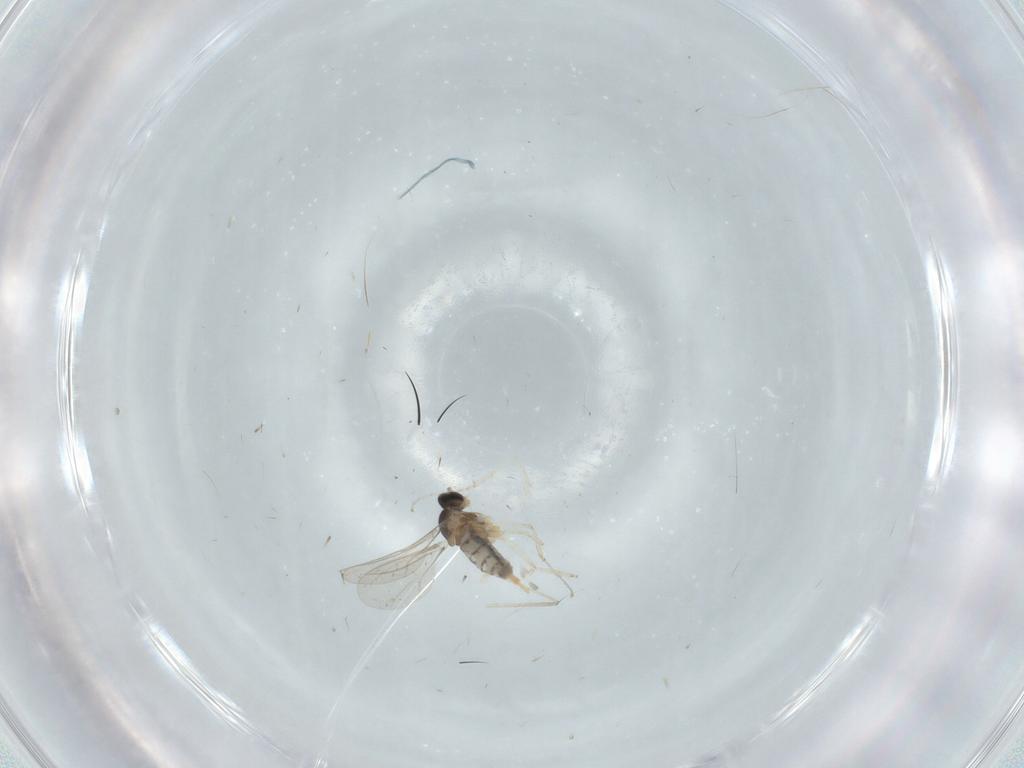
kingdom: Animalia
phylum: Arthropoda
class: Insecta
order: Diptera
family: Cecidomyiidae
